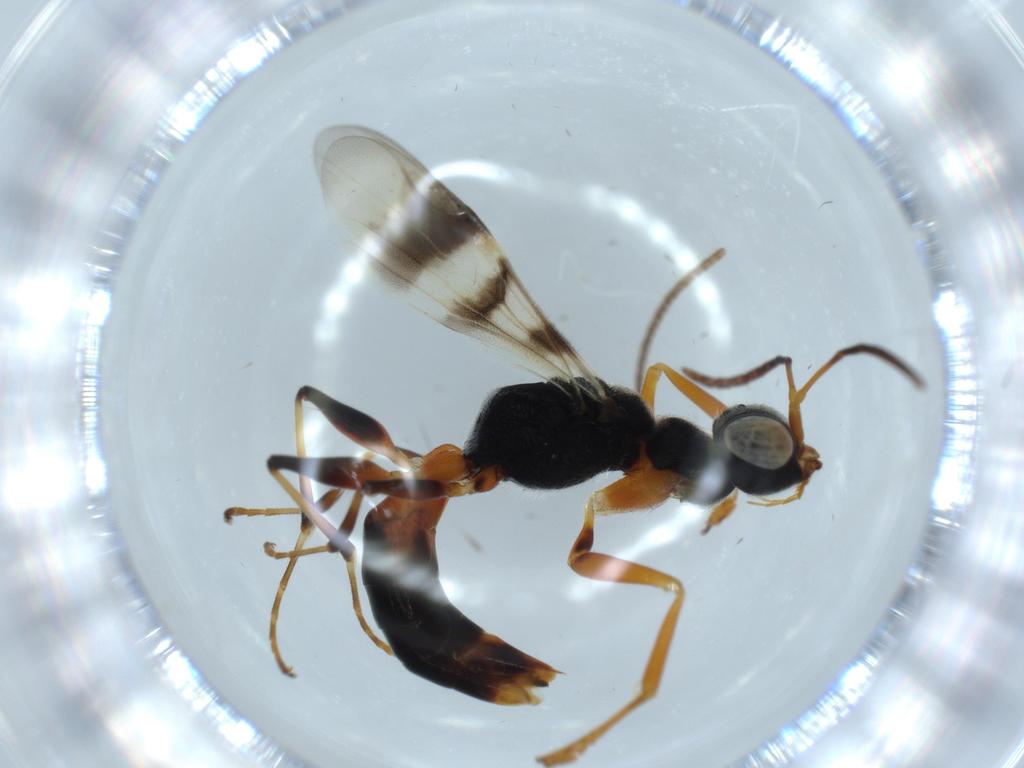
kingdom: Animalia
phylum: Arthropoda
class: Insecta
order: Hymenoptera
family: Dryinidae
